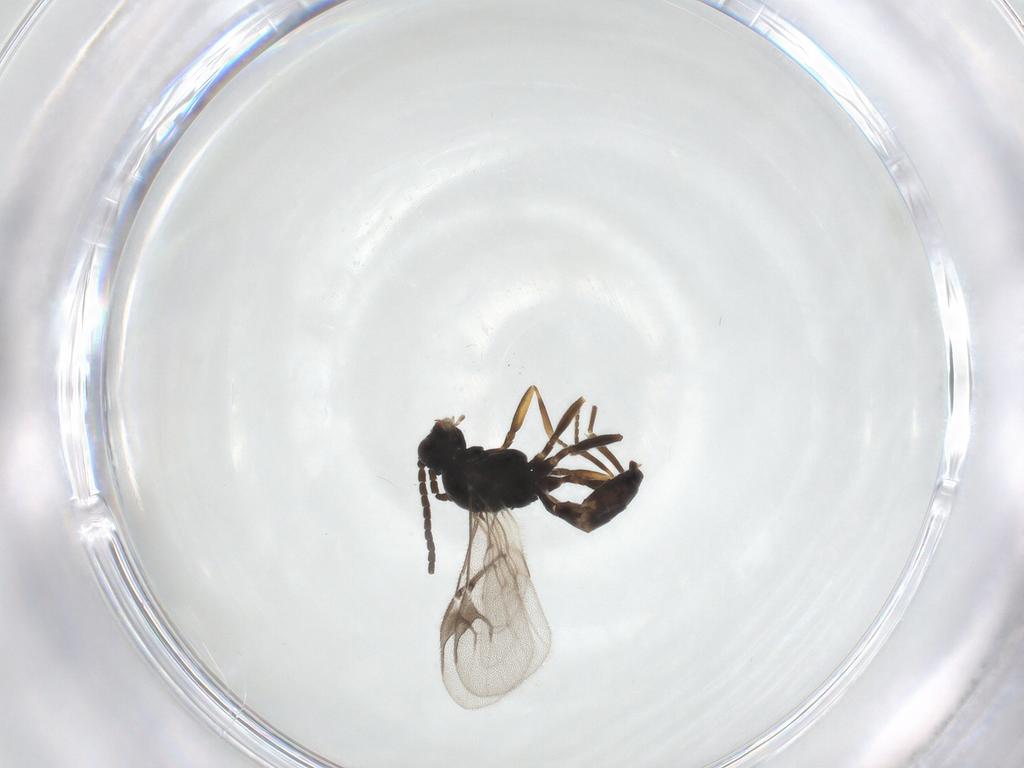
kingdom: Animalia
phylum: Arthropoda
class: Insecta
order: Hymenoptera
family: Braconidae
